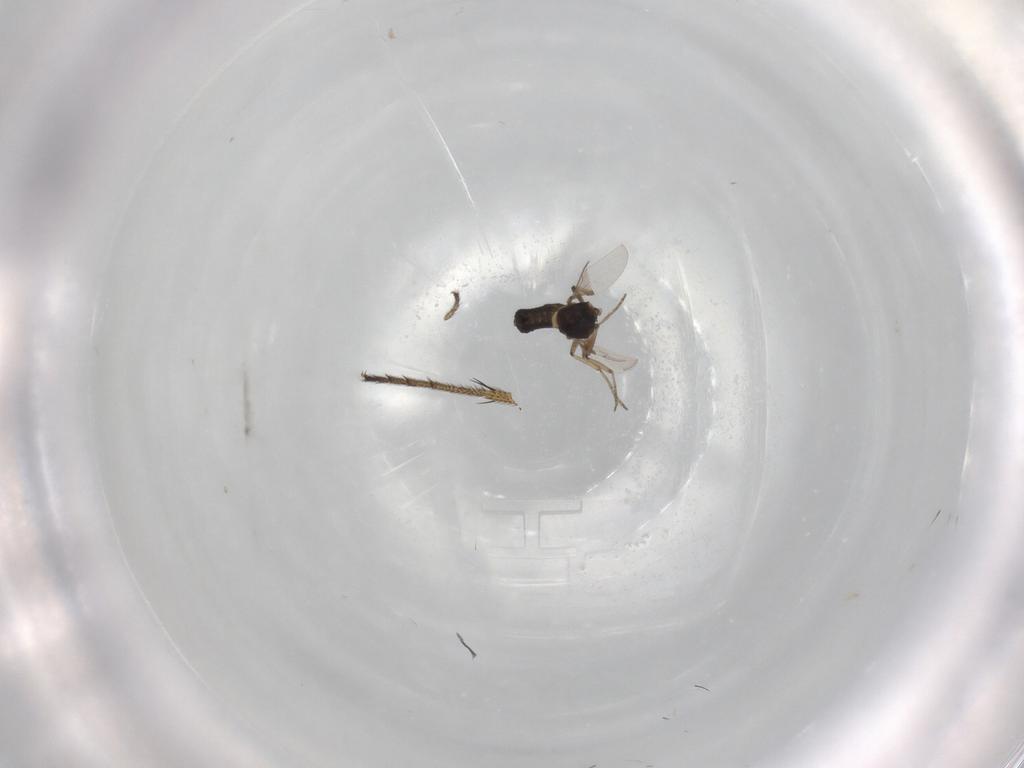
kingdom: Animalia
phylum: Arthropoda
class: Insecta
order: Diptera
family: Ceratopogonidae
